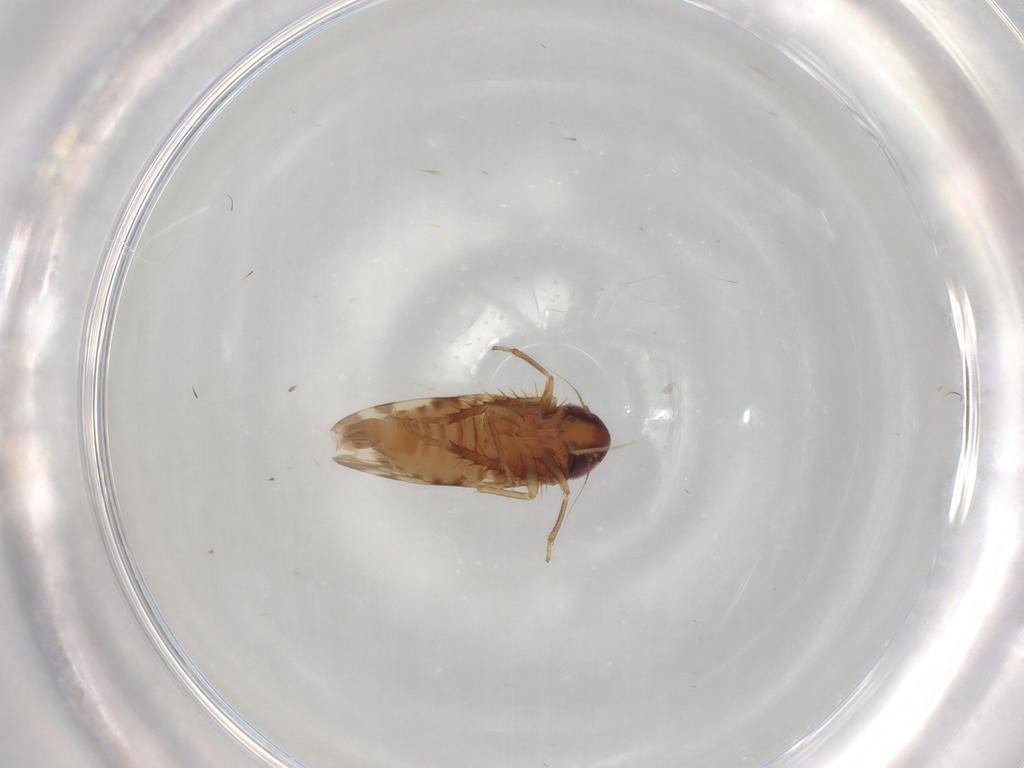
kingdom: Animalia
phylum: Arthropoda
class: Insecta
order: Hemiptera
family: Cicadellidae
